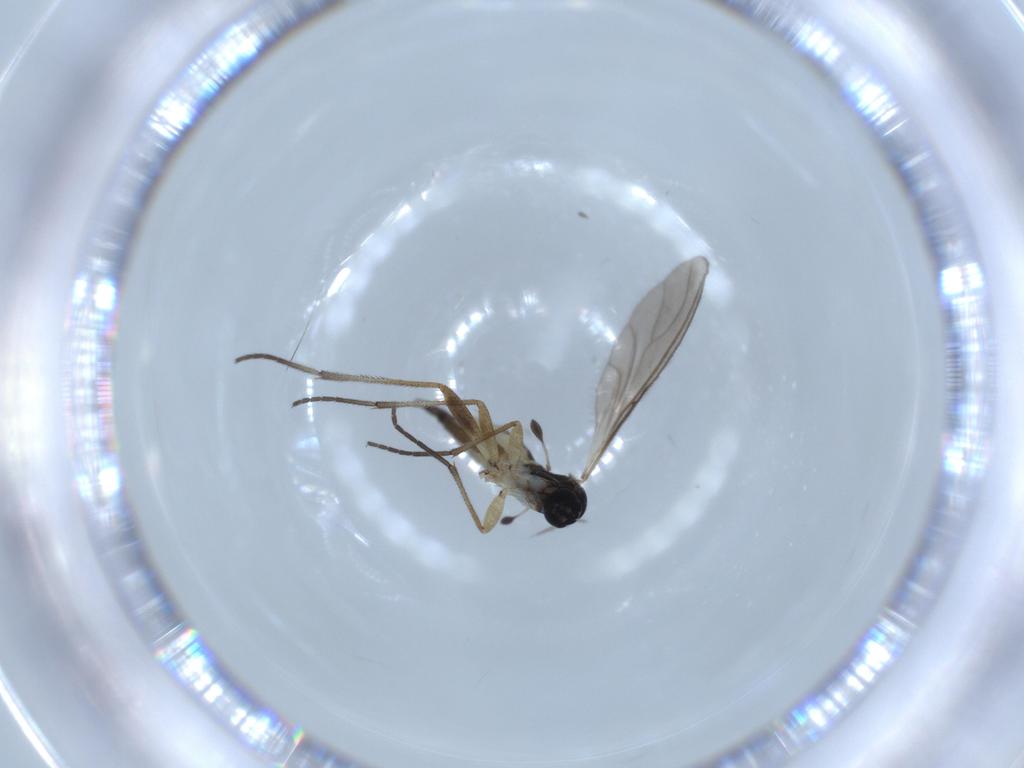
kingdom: Animalia
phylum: Arthropoda
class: Insecta
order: Diptera
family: Sciaridae
